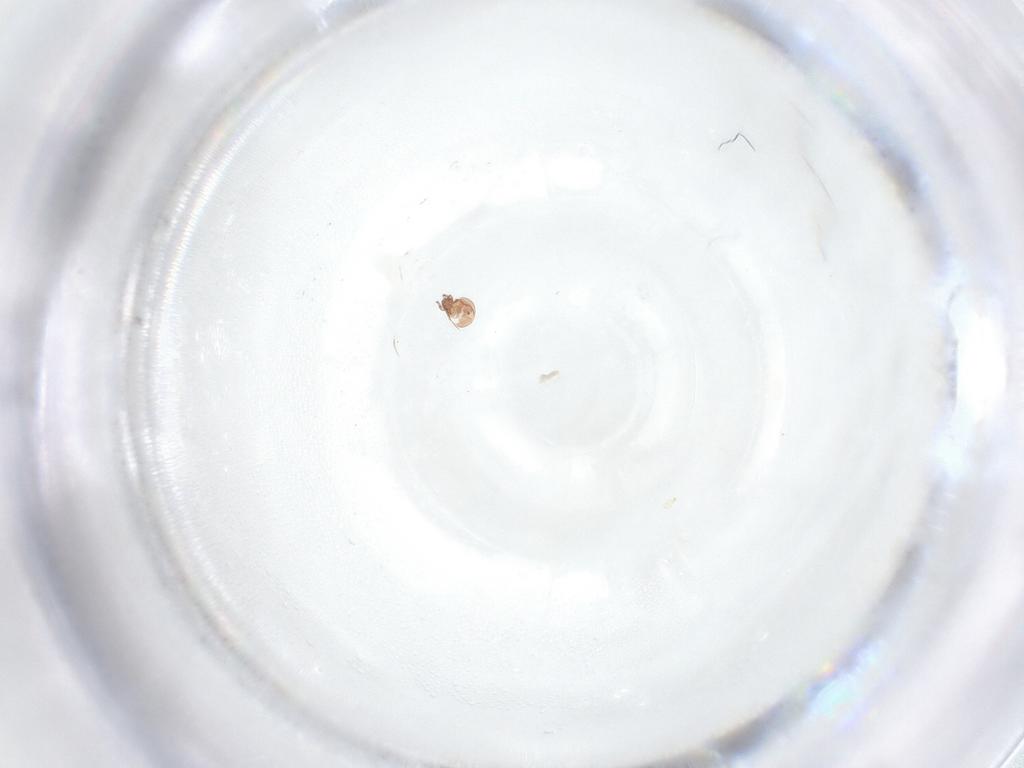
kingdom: Animalia
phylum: Arthropoda
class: Arachnida
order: Sarcoptiformes
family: Oppiidae
